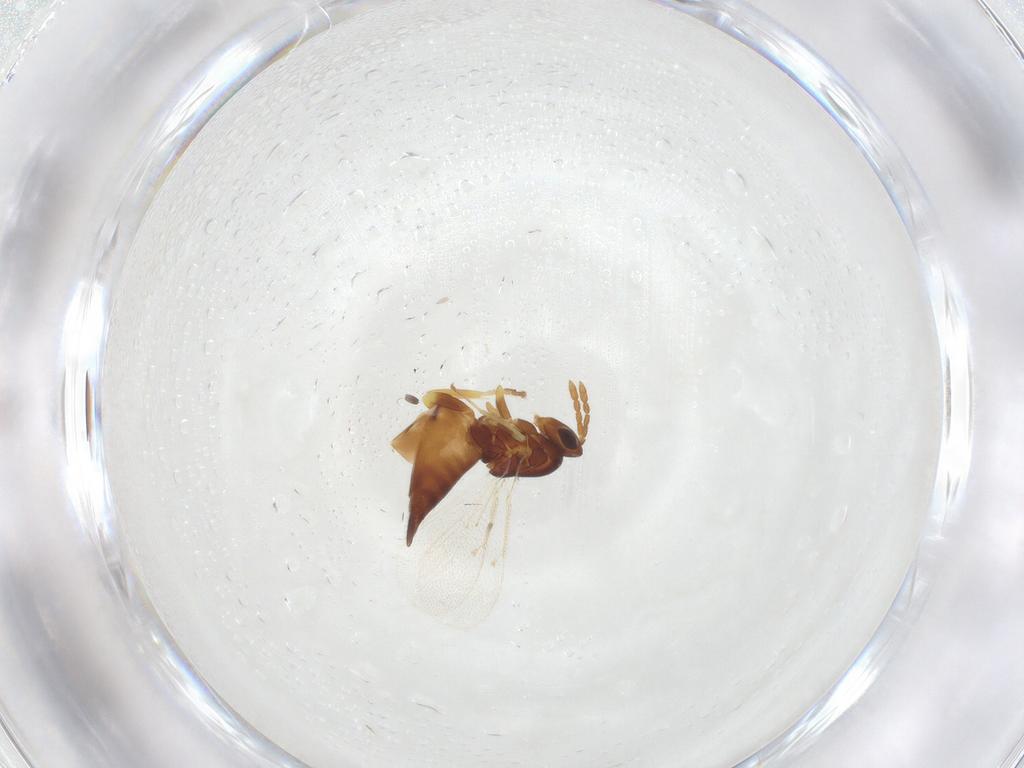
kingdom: Animalia
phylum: Arthropoda
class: Insecta
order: Hymenoptera
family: Eulophidae
